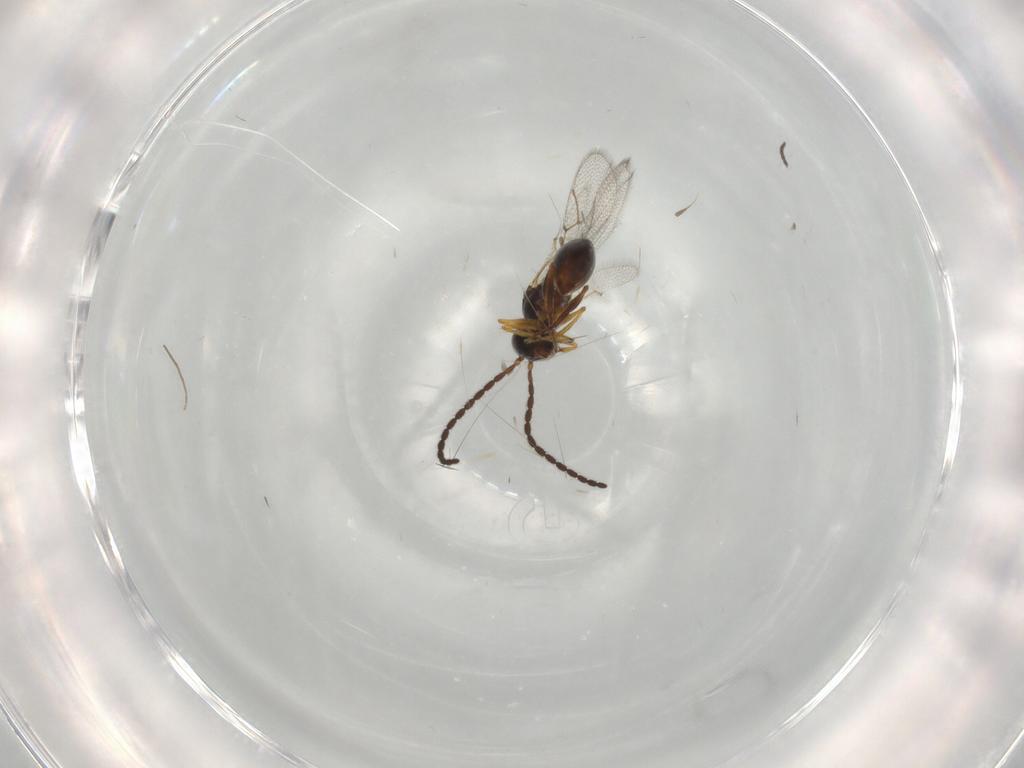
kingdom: Animalia
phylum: Arthropoda
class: Insecta
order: Hymenoptera
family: Figitidae
